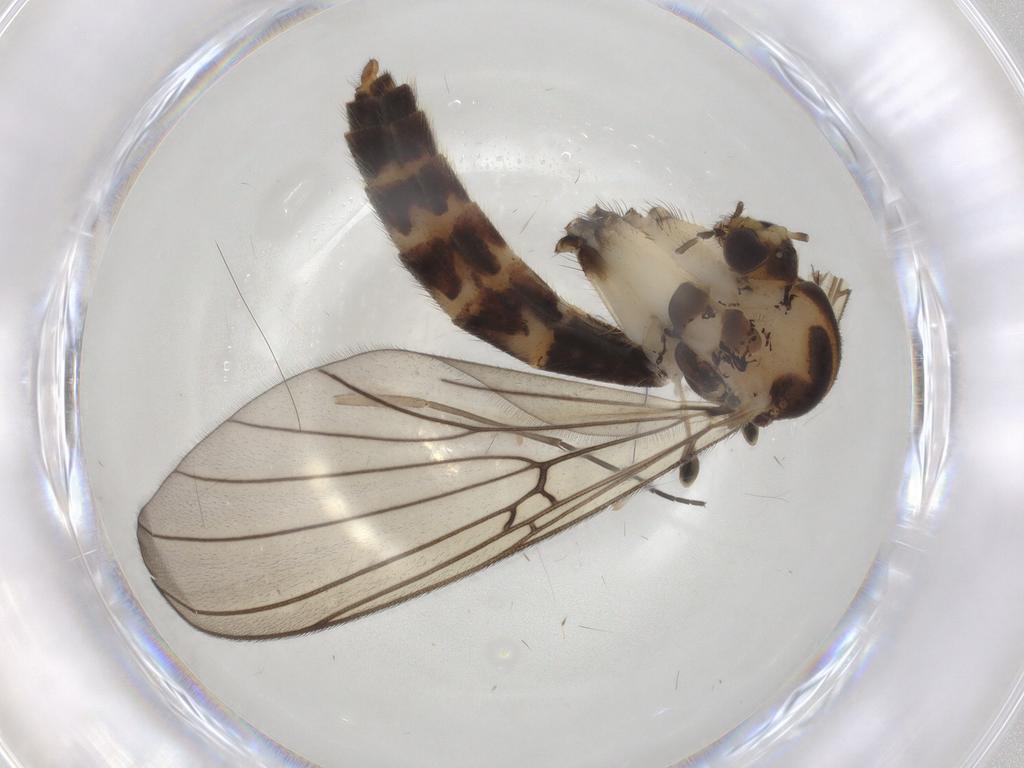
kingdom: Animalia
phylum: Arthropoda
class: Insecta
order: Diptera
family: Mycetophilidae
